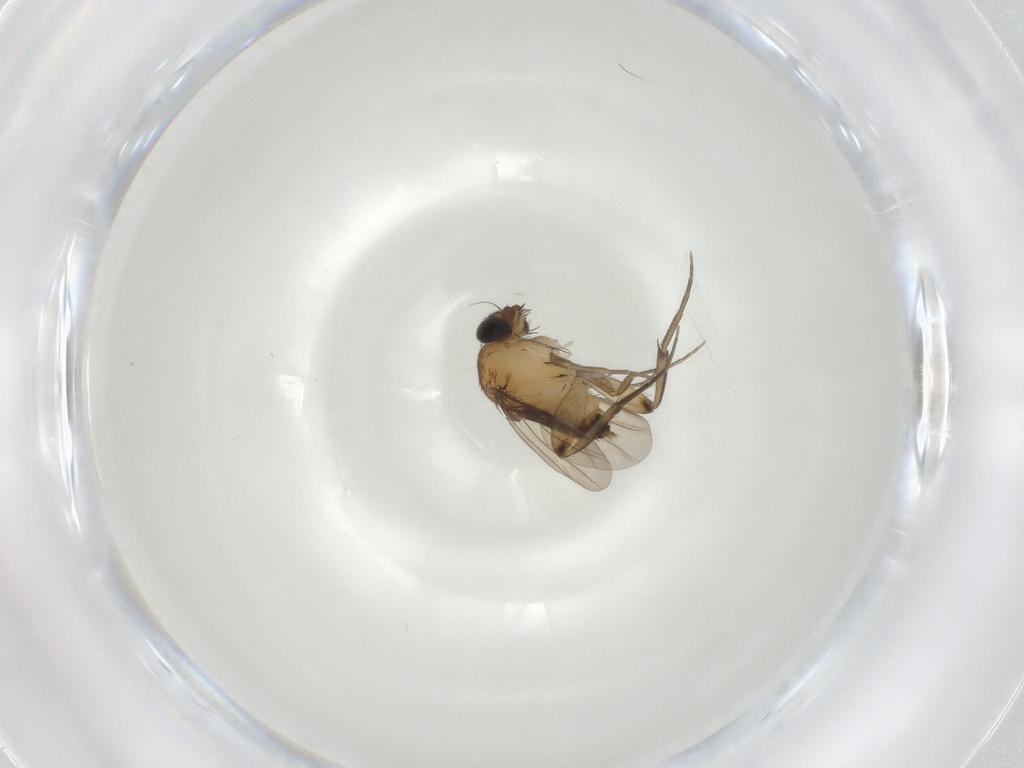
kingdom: Animalia
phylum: Arthropoda
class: Insecta
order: Diptera
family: Phoridae
